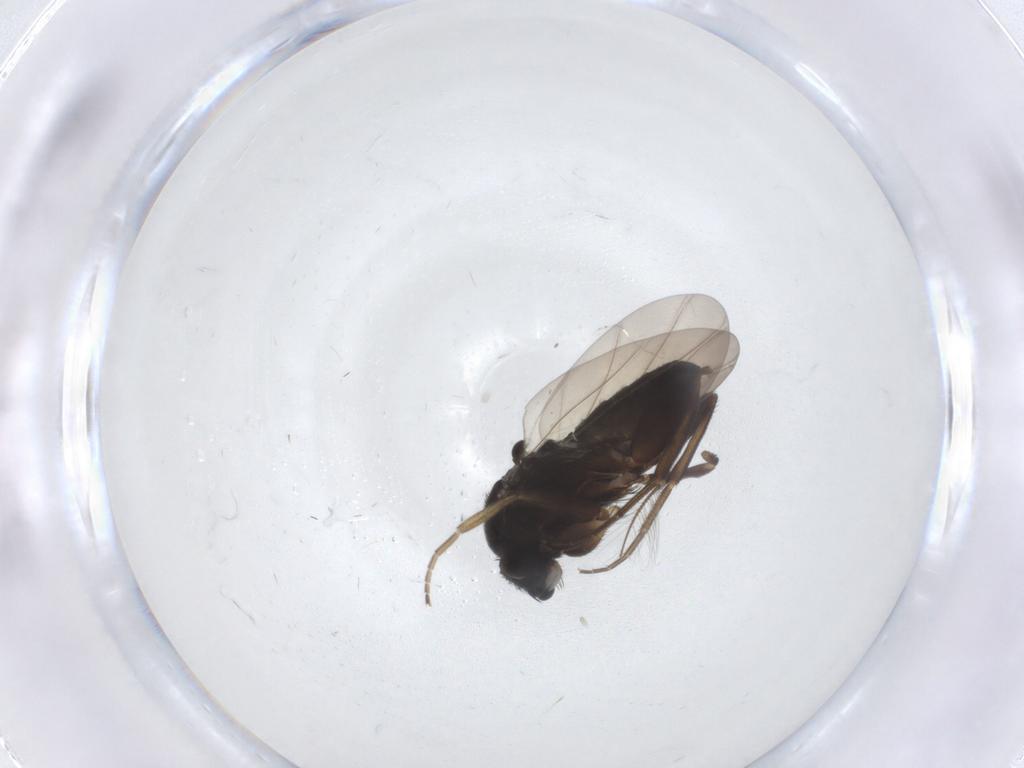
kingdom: Animalia
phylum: Arthropoda
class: Insecta
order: Diptera
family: Phoridae
